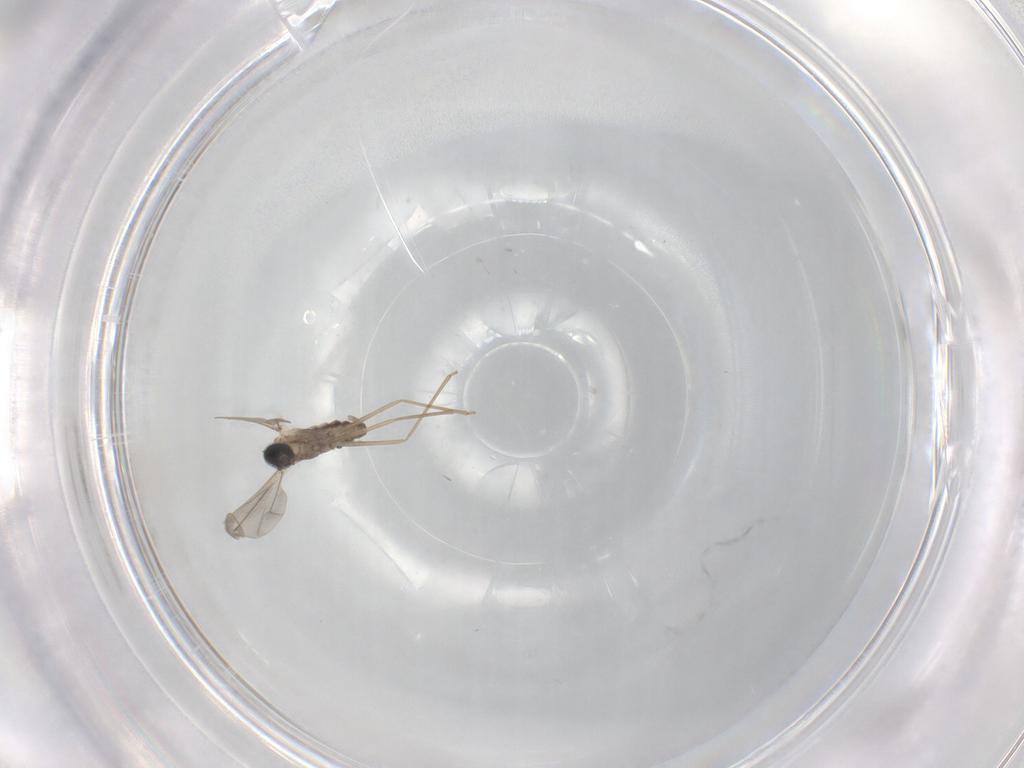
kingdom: Animalia
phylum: Arthropoda
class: Insecta
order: Diptera
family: Cecidomyiidae
